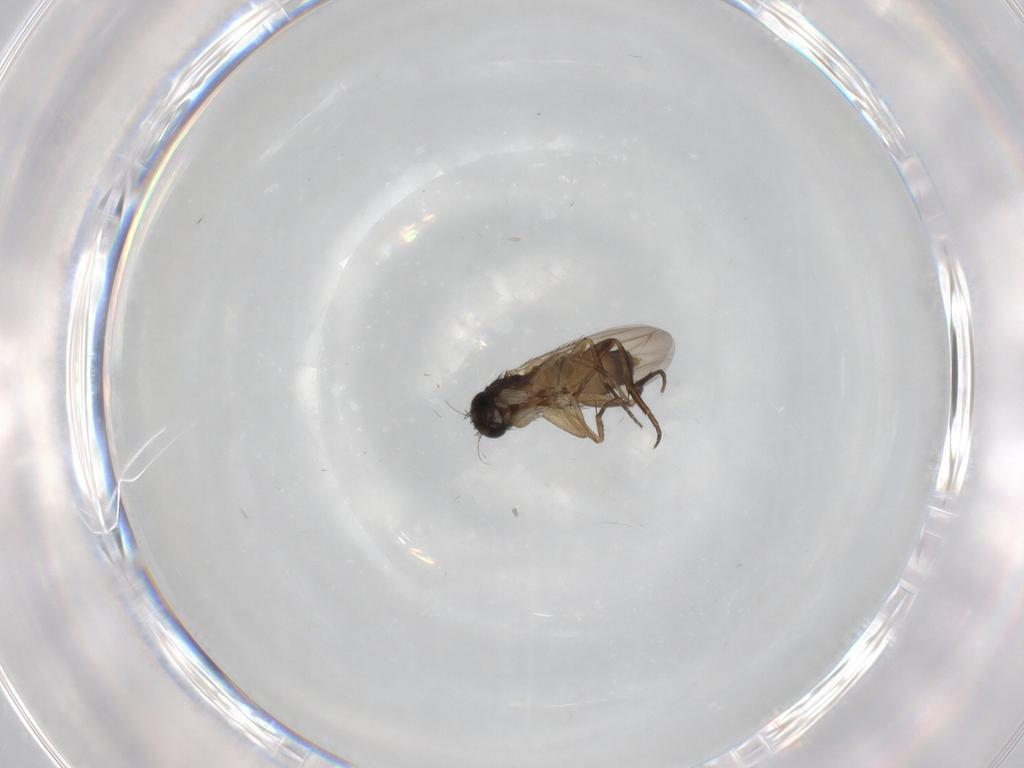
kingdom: Animalia
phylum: Arthropoda
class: Insecta
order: Diptera
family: Phoridae
